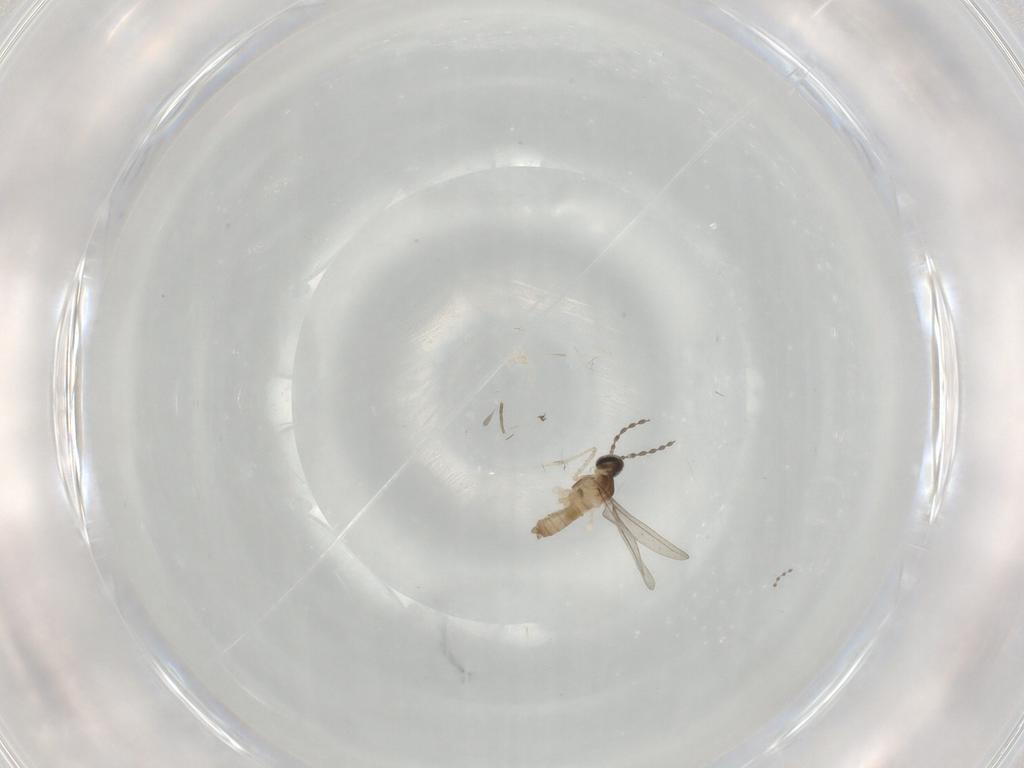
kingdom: Animalia
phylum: Arthropoda
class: Insecta
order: Diptera
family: Cecidomyiidae
